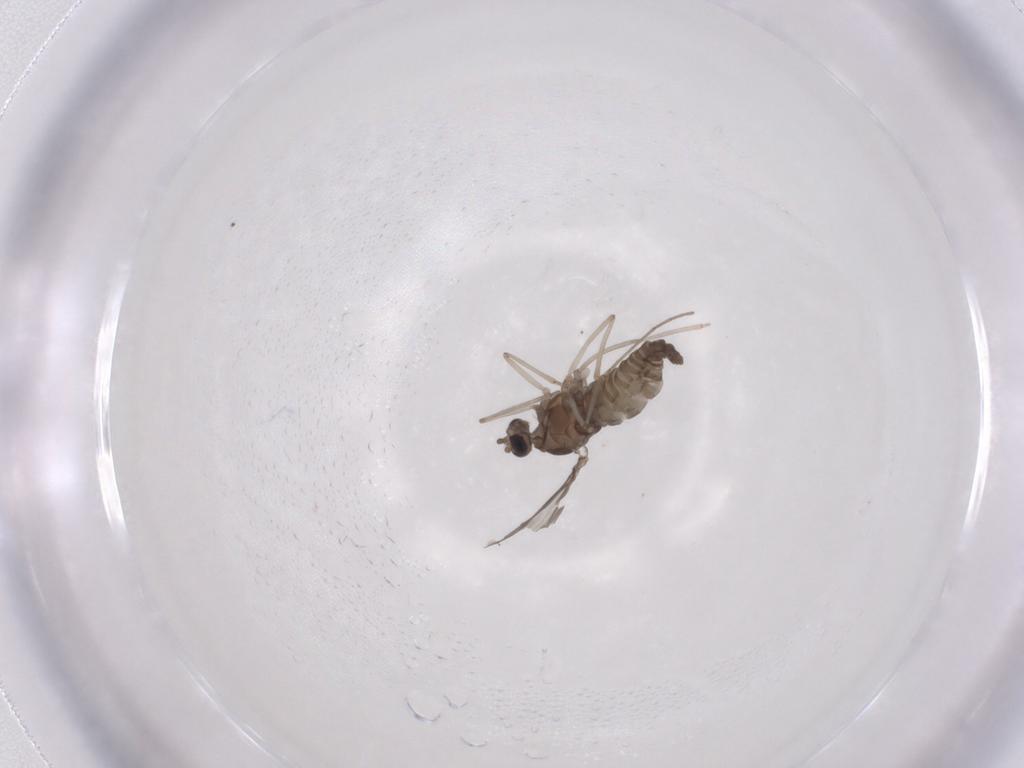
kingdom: Animalia
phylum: Arthropoda
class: Insecta
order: Diptera
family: Cecidomyiidae
